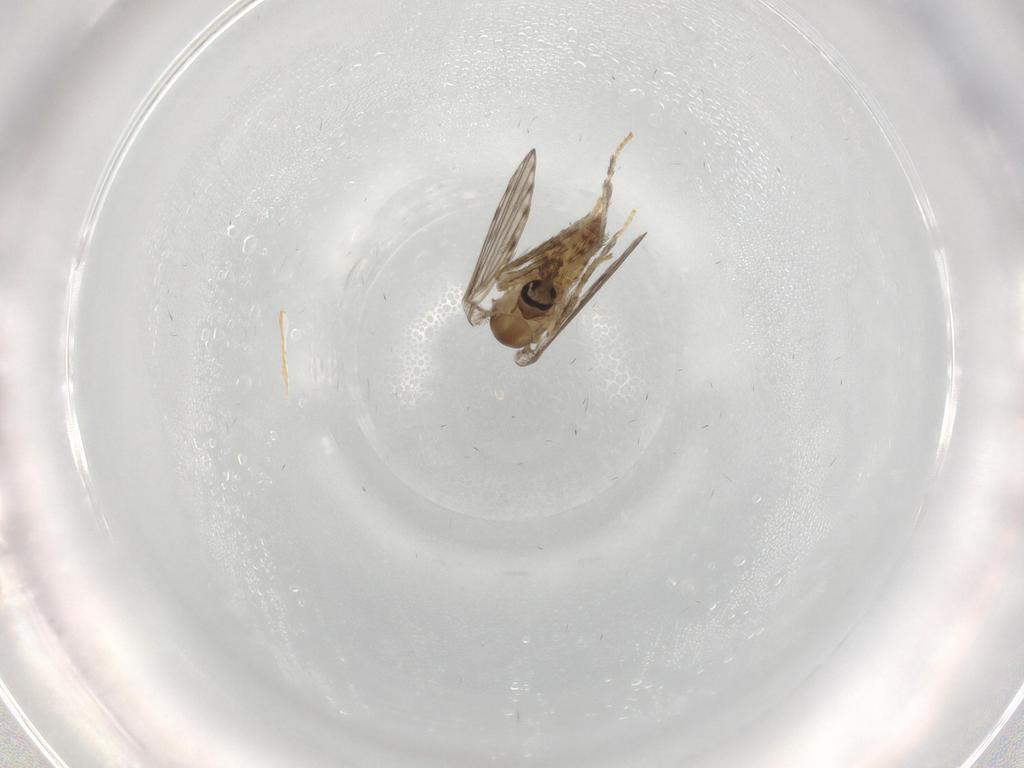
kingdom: Animalia
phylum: Arthropoda
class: Insecta
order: Diptera
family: Psychodidae
